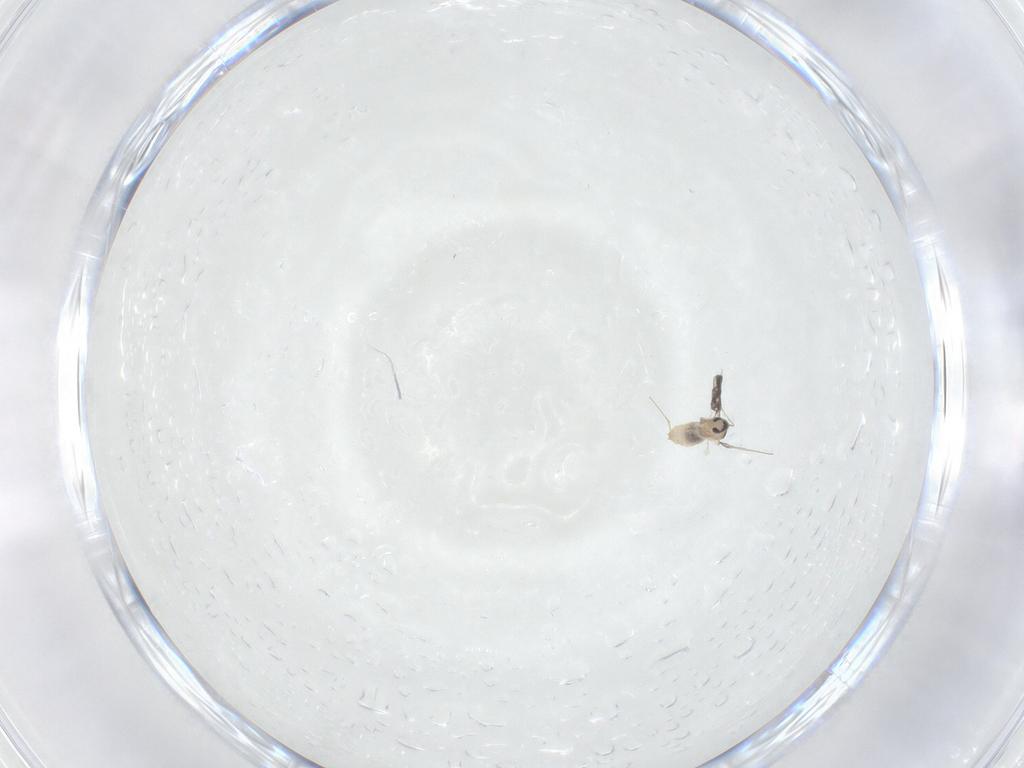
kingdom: Animalia
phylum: Arthropoda
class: Insecta
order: Diptera
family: Cecidomyiidae
